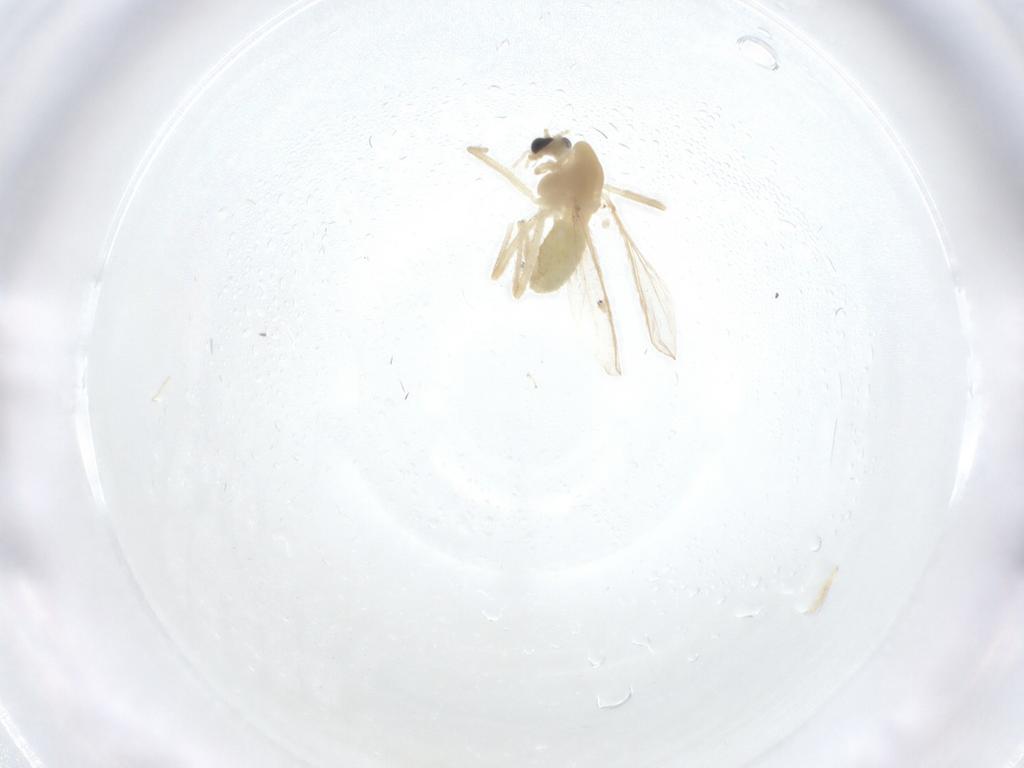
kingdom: Animalia
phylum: Arthropoda
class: Insecta
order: Diptera
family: Chironomidae
